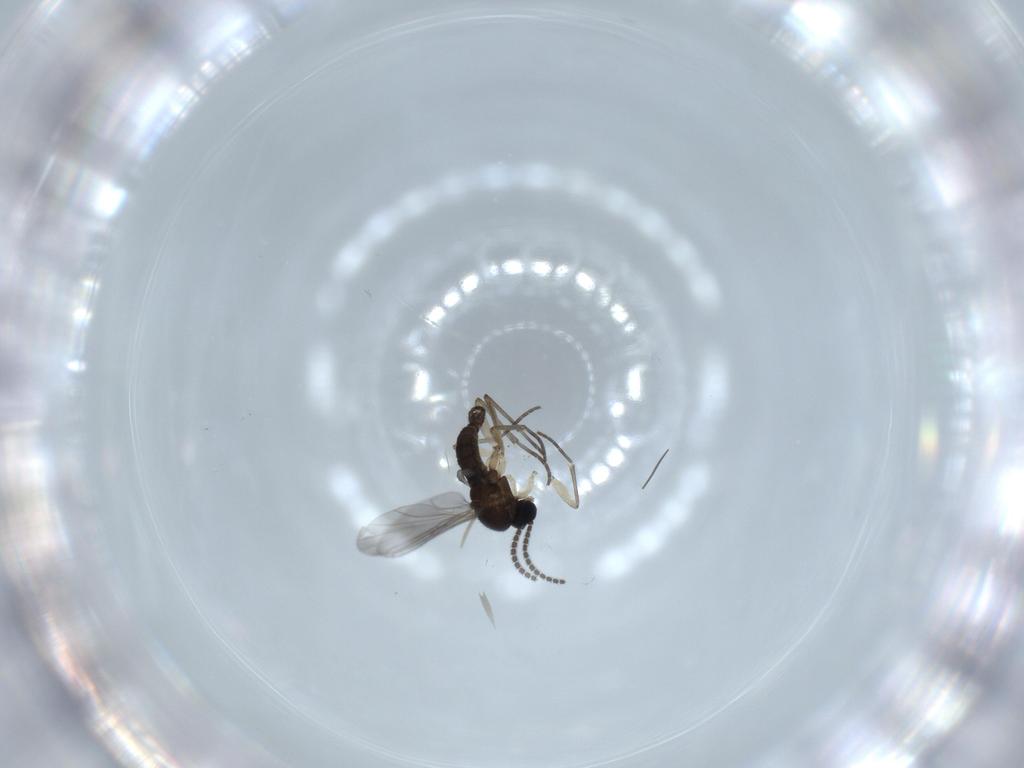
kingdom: Animalia
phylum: Arthropoda
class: Insecta
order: Diptera
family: Sciaridae
